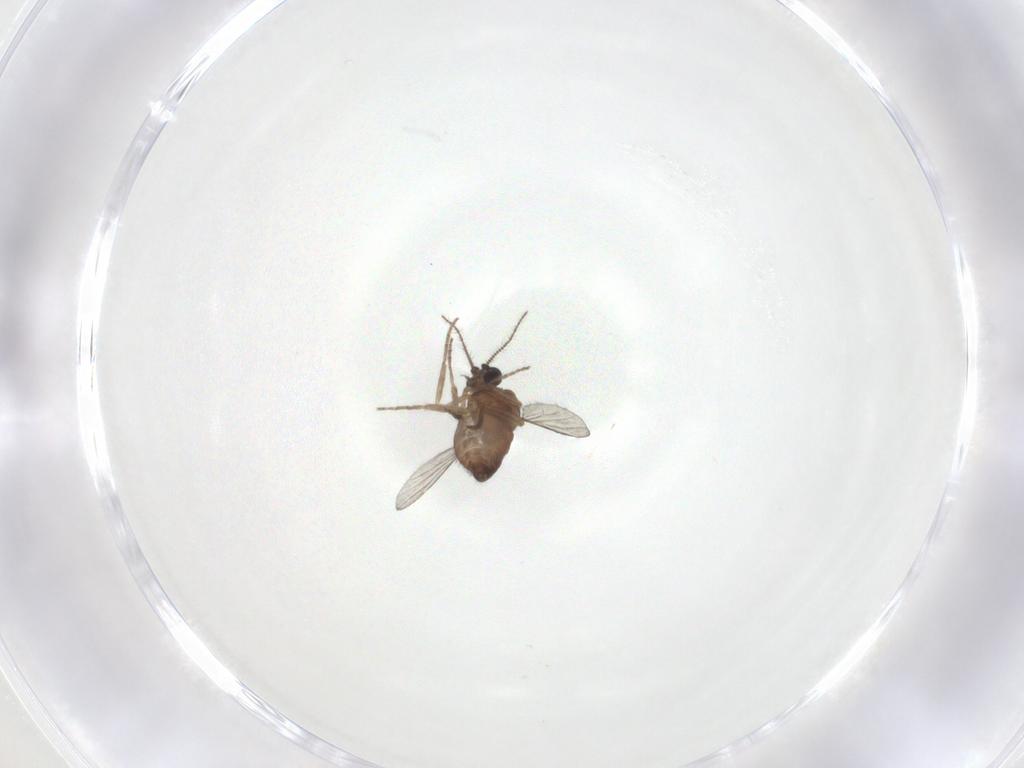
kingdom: Animalia
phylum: Arthropoda
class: Insecta
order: Diptera
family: Ceratopogonidae
